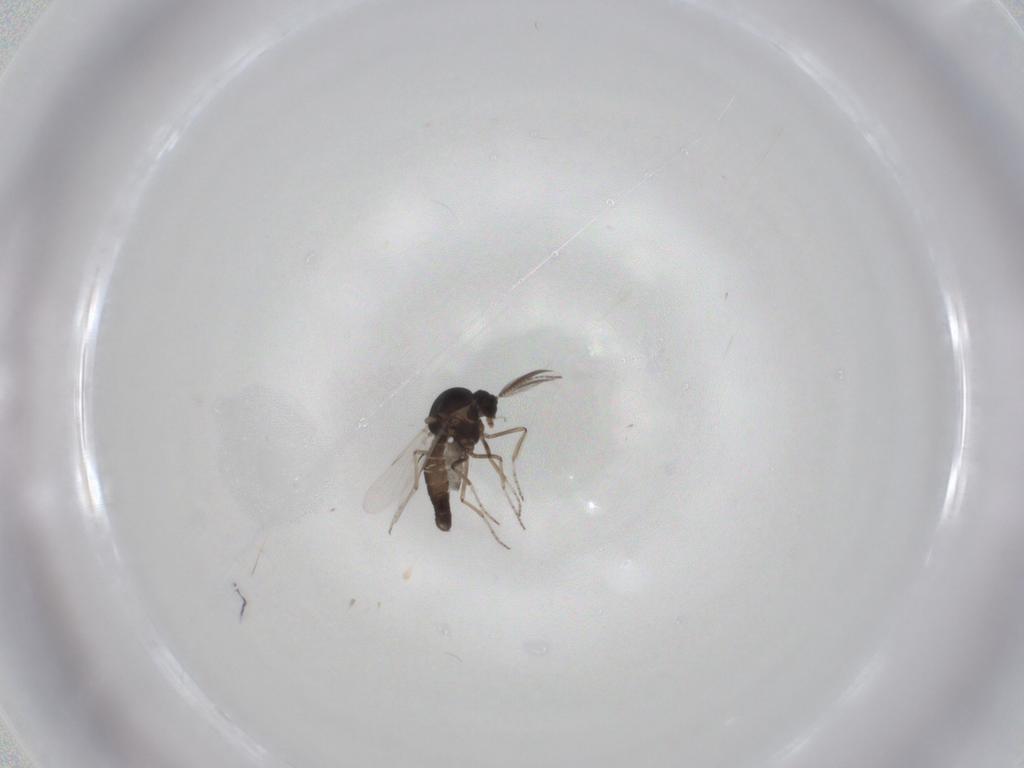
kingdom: Animalia
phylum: Arthropoda
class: Insecta
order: Diptera
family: Ceratopogonidae
